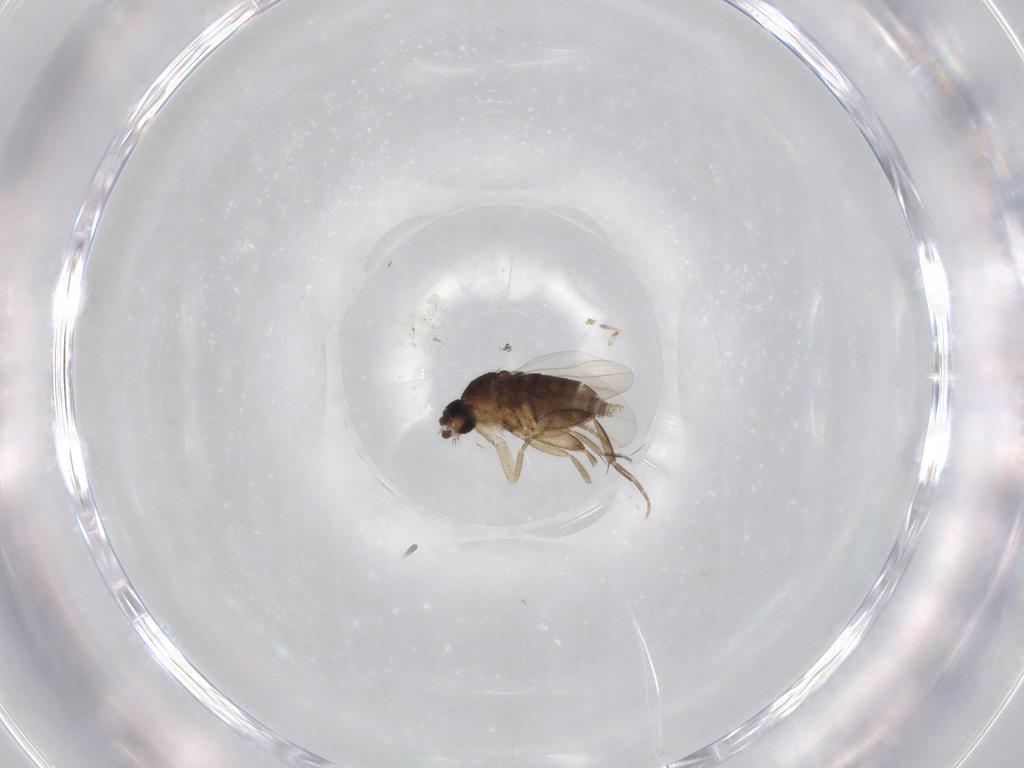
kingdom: Animalia
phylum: Arthropoda
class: Insecta
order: Diptera
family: Phoridae
